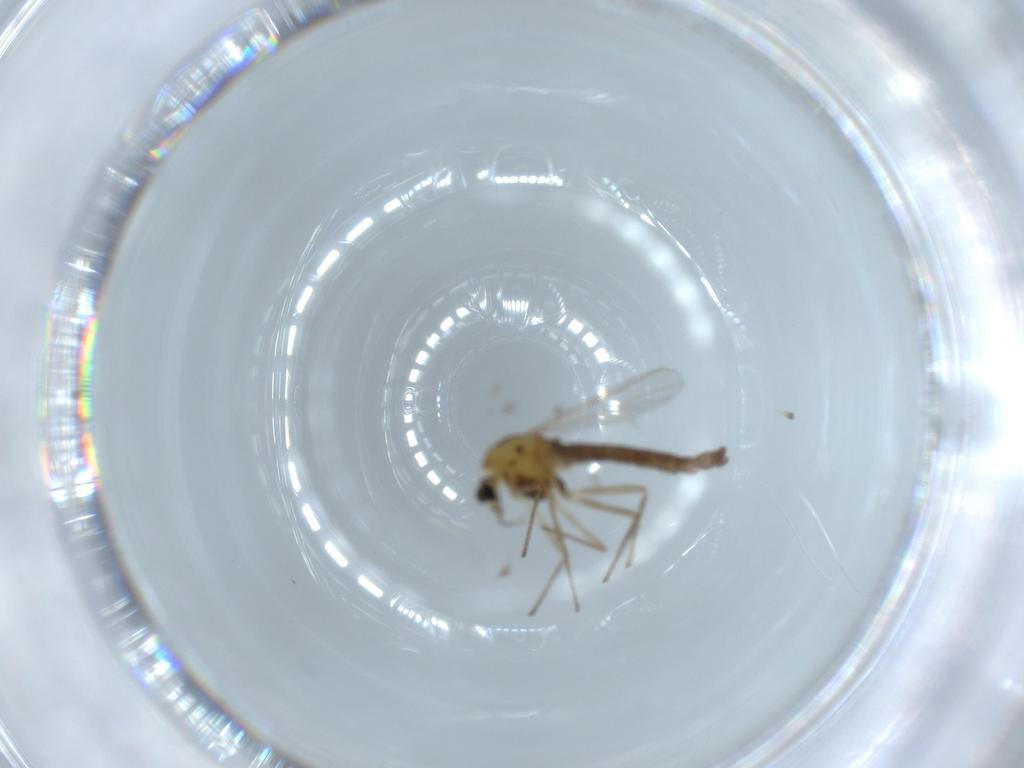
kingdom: Animalia
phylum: Arthropoda
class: Insecta
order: Diptera
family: Chironomidae
